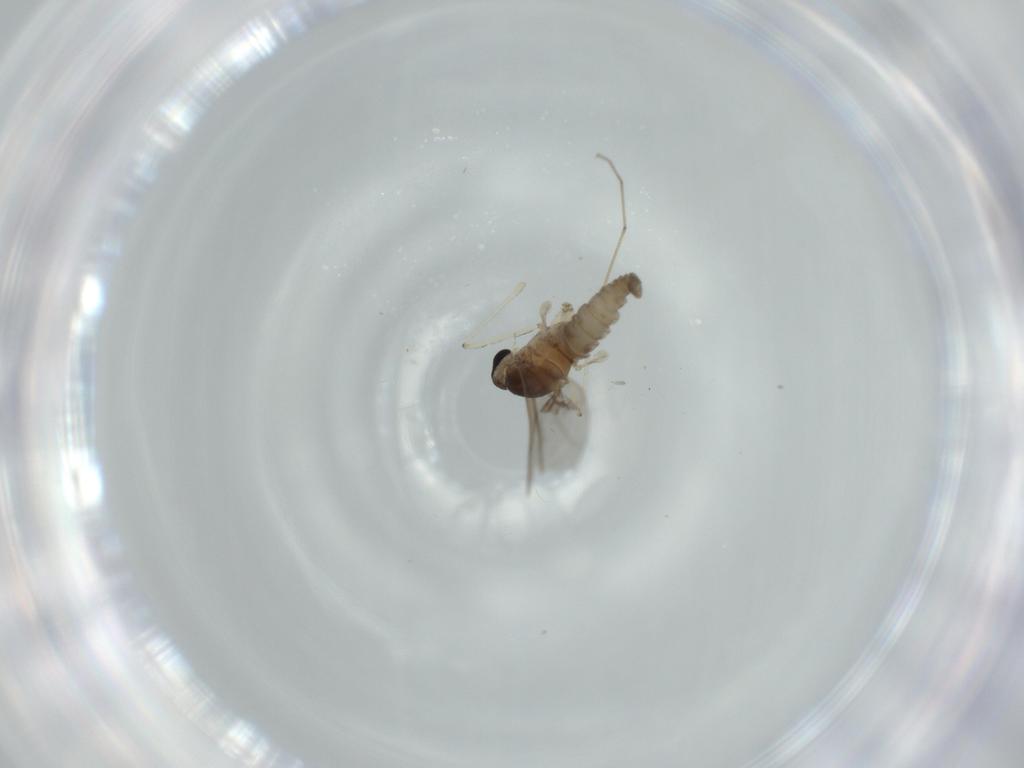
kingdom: Animalia
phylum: Arthropoda
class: Insecta
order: Diptera
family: Cecidomyiidae
